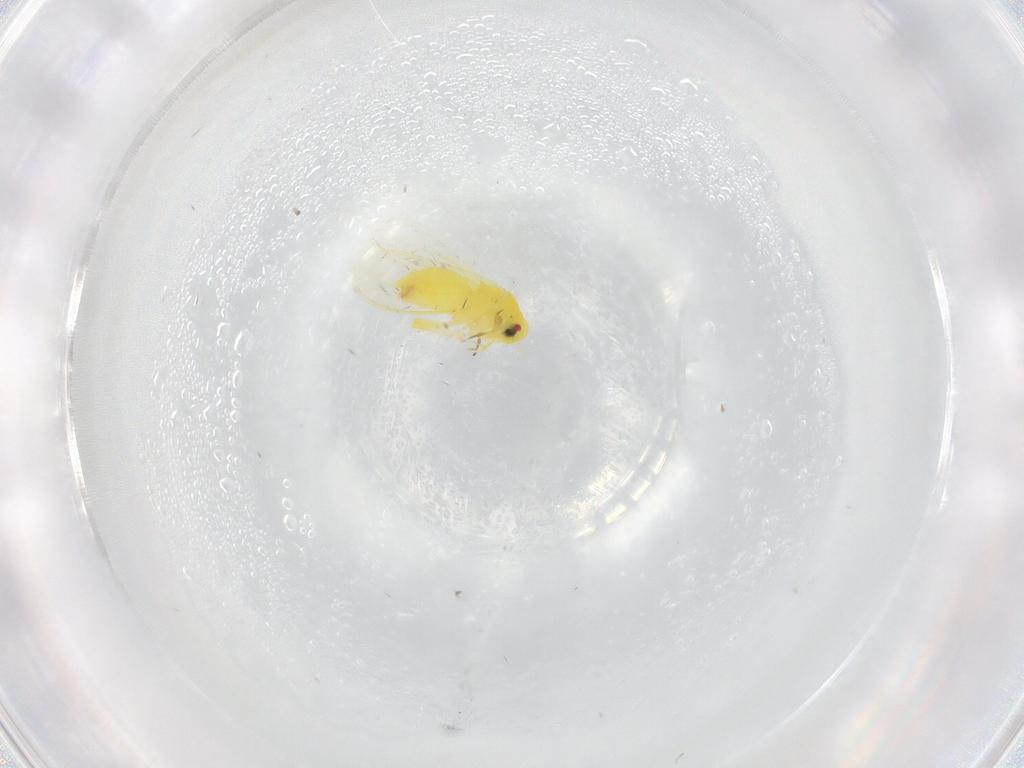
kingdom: Animalia
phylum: Arthropoda
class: Insecta
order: Hemiptera
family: Aleyrodidae
